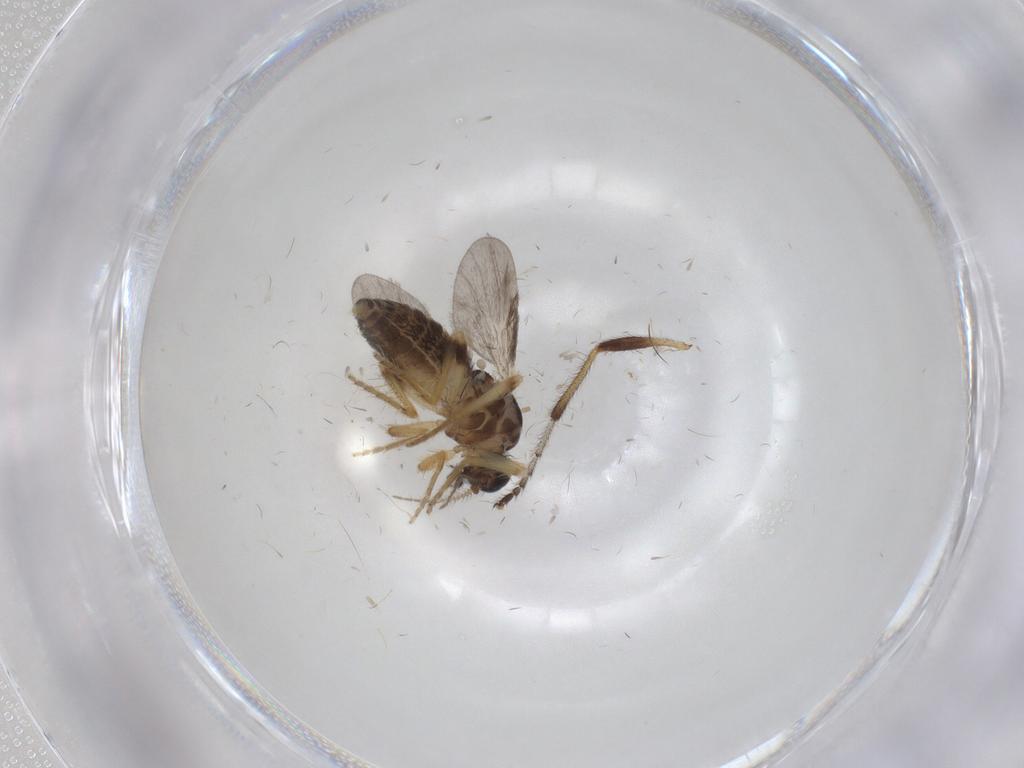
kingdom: Animalia
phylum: Arthropoda
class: Insecta
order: Diptera
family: Ceratopogonidae
